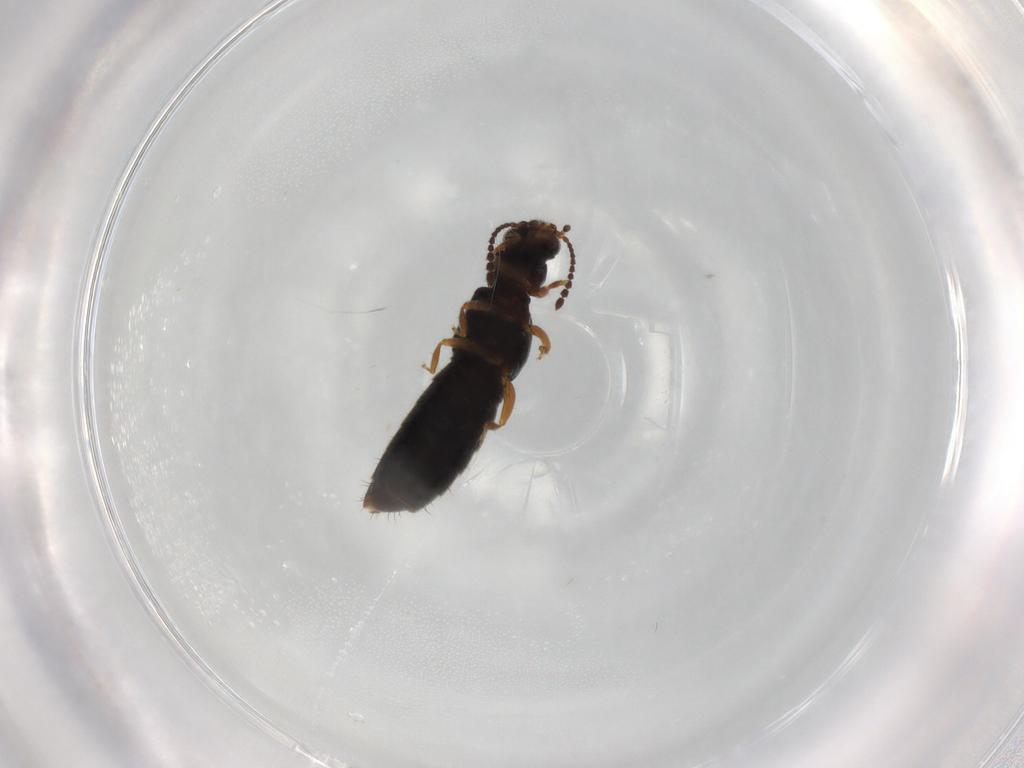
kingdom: Animalia
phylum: Arthropoda
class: Insecta
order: Coleoptera
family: Staphylinidae
